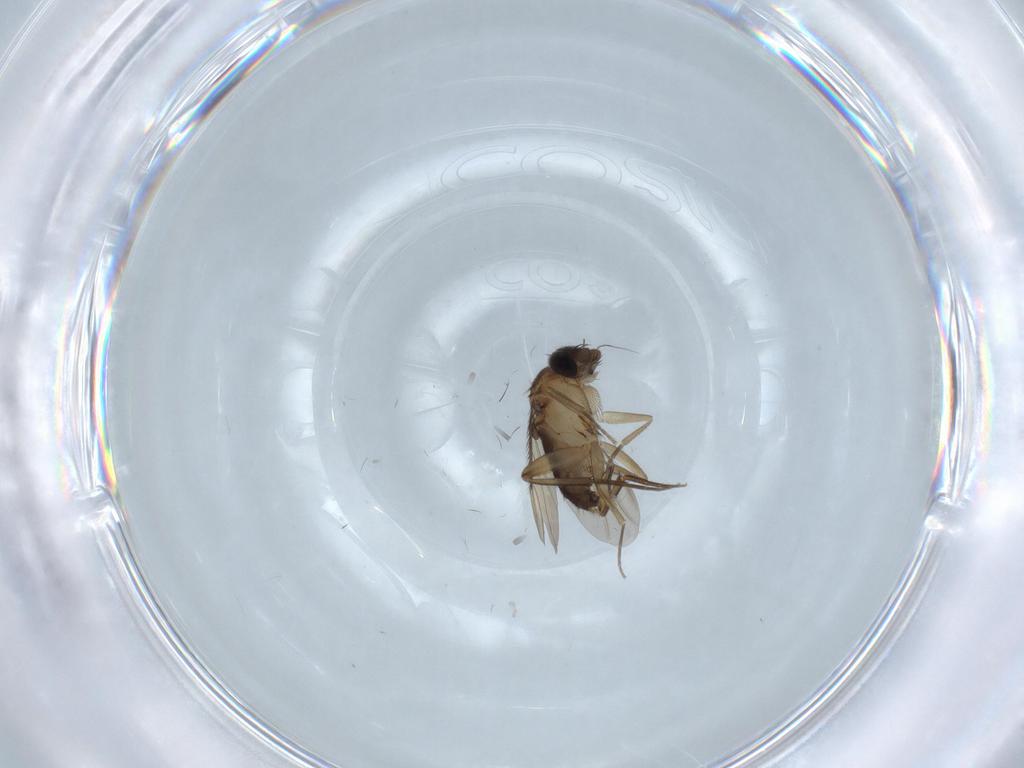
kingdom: Animalia
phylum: Arthropoda
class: Insecta
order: Diptera
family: Phoridae
